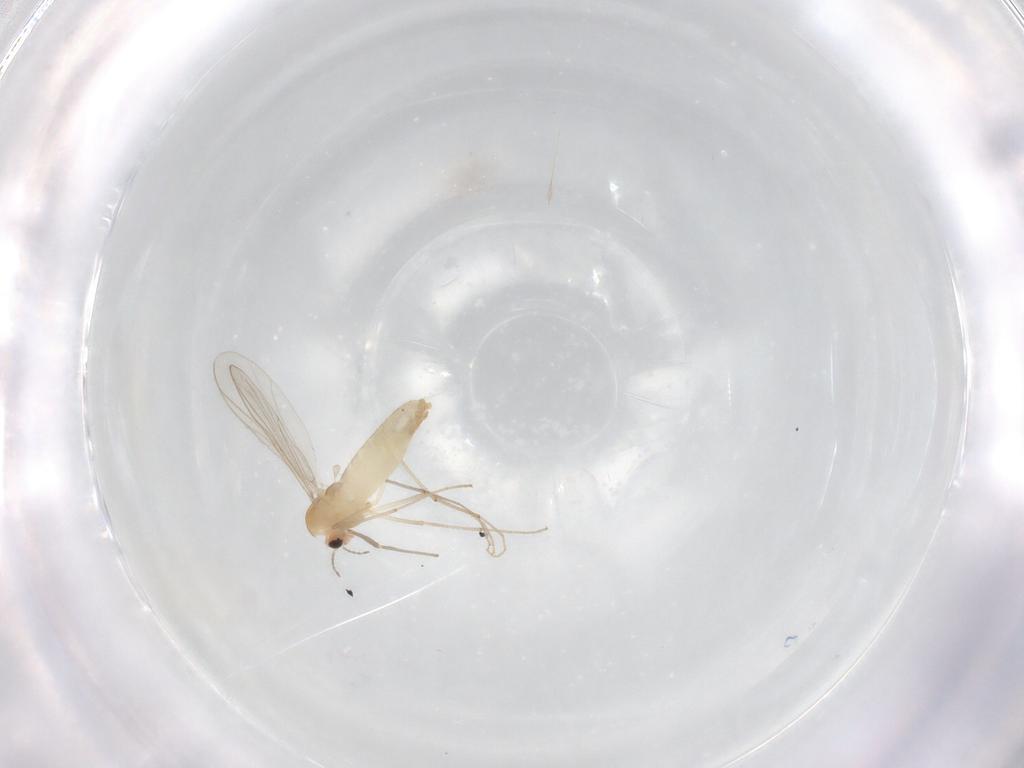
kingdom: Animalia
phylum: Arthropoda
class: Insecta
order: Diptera
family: Chironomidae
